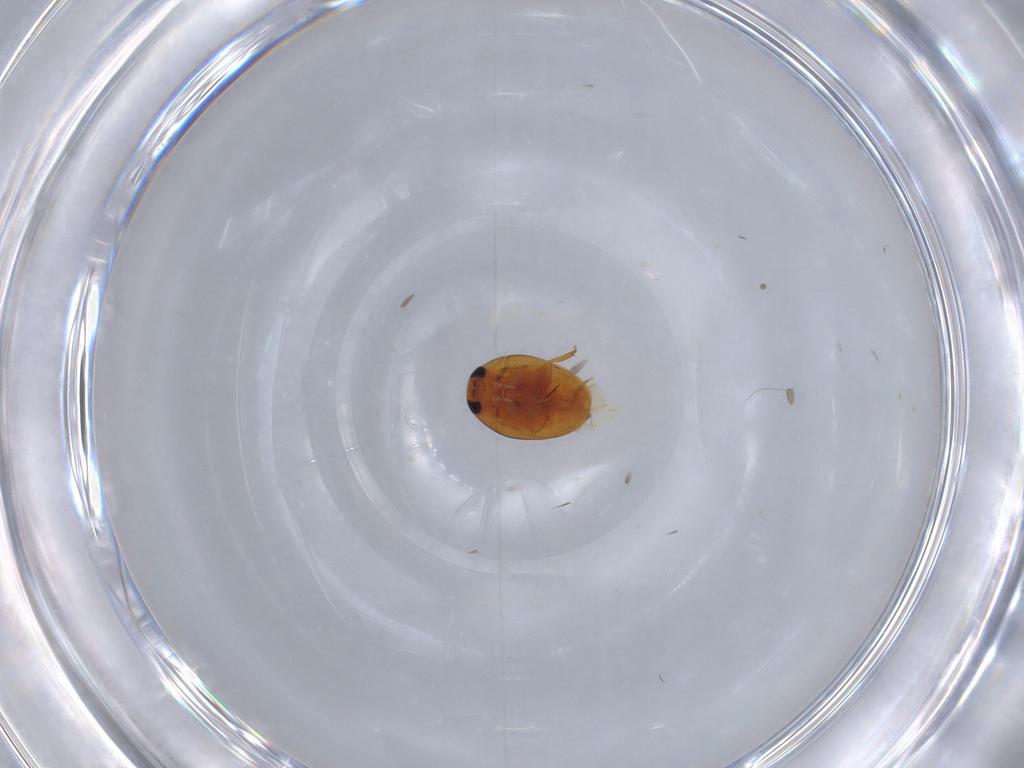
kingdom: Animalia
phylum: Arthropoda
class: Insecta
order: Coleoptera
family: Phalacridae
